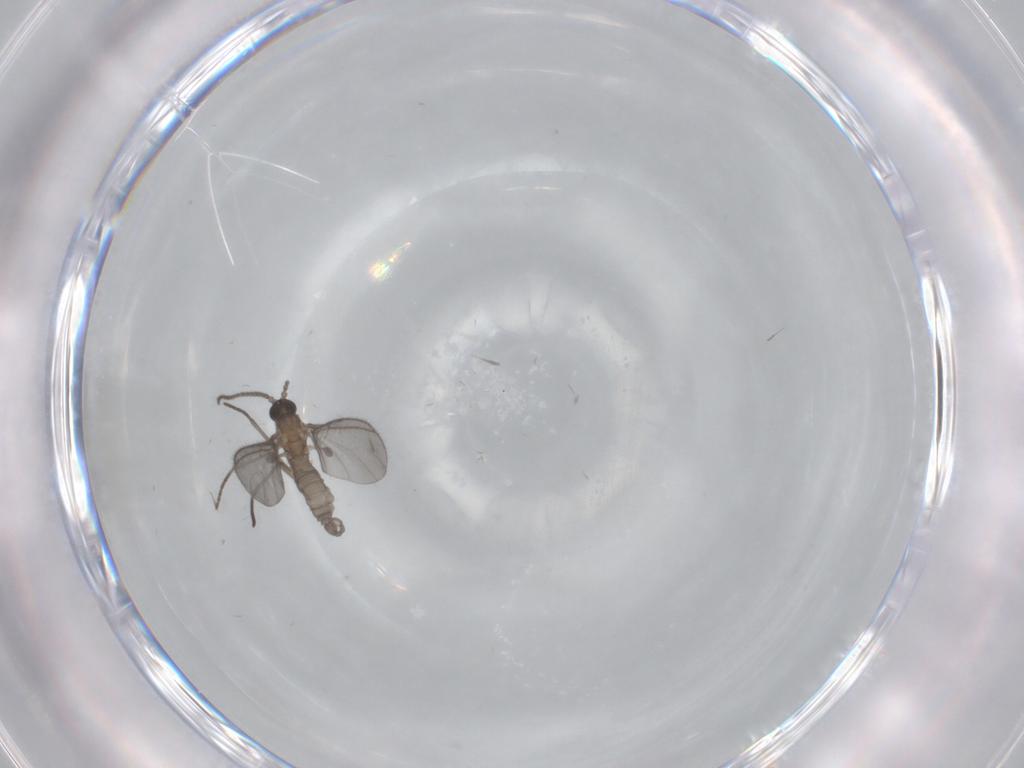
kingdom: Animalia
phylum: Arthropoda
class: Insecta
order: Diptera
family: Sciaridae
